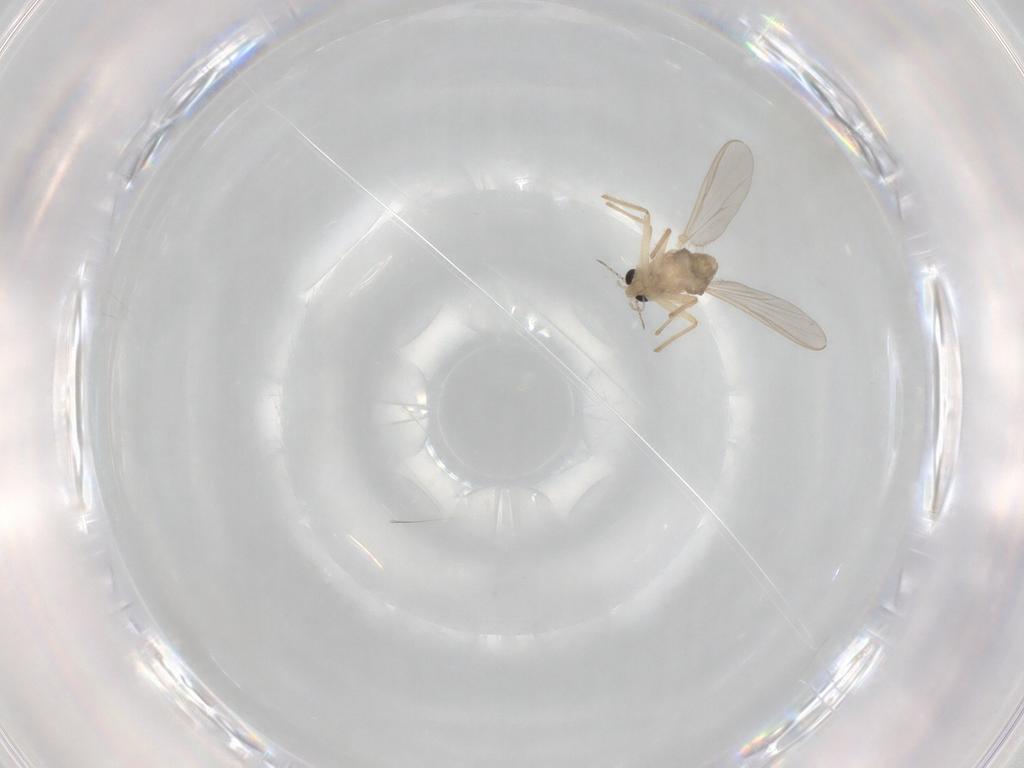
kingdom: Animalia
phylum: Arthropoda
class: Insecta
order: Diptera
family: Chironomidae
